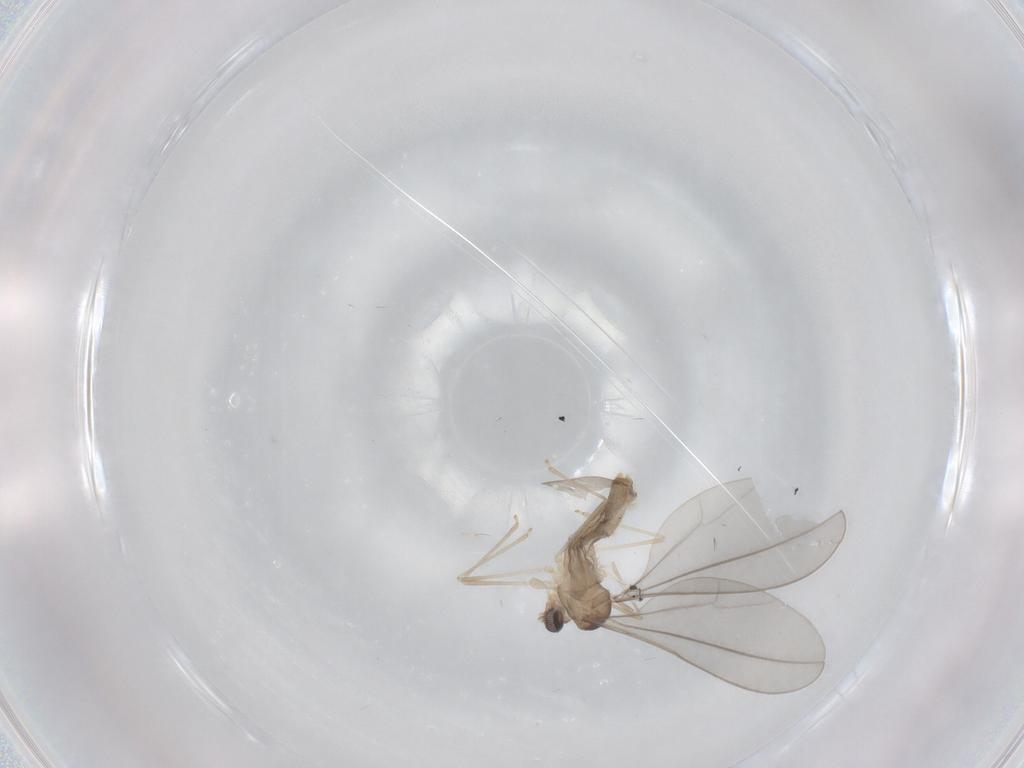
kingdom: Animalia
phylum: Arthropoda
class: Insecta
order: Diptera
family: Cecidomyiidae
